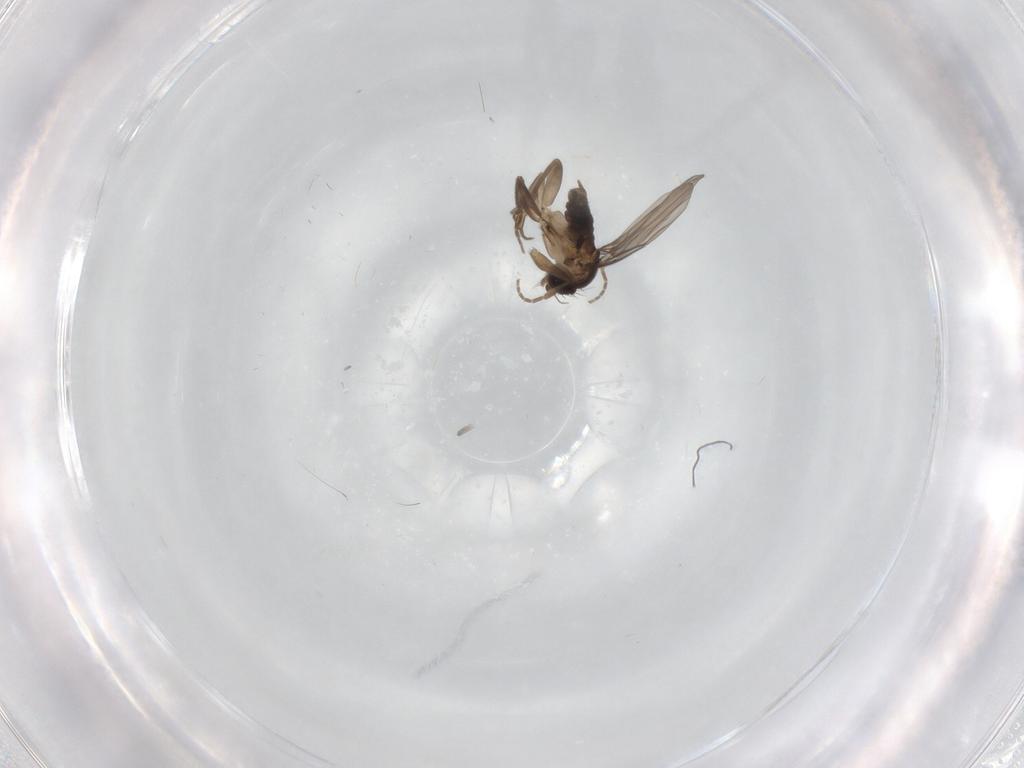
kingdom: Animalia
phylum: Arthropoda
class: Insecta
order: Diptera
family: Phoridae
